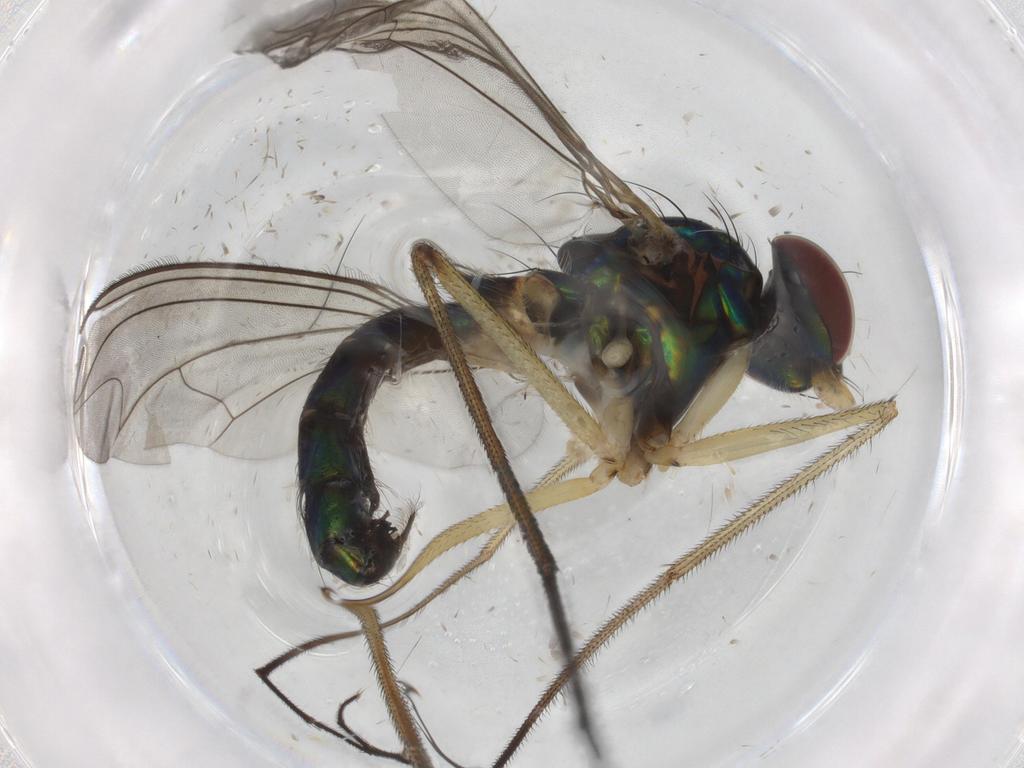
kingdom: Animalia
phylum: Arthropoda
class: Insecta
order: Diptera
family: Dolichopodidae
